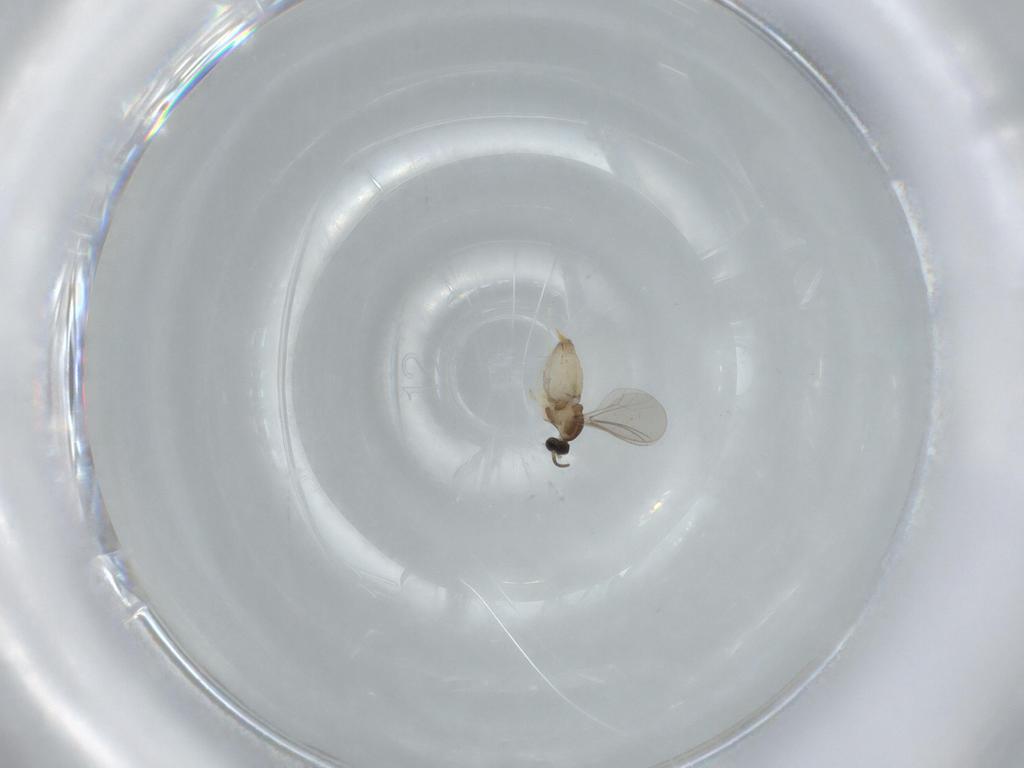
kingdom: Animalia
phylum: Arthropoda
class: Insecta
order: Diptera
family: Cecidomyiidae
